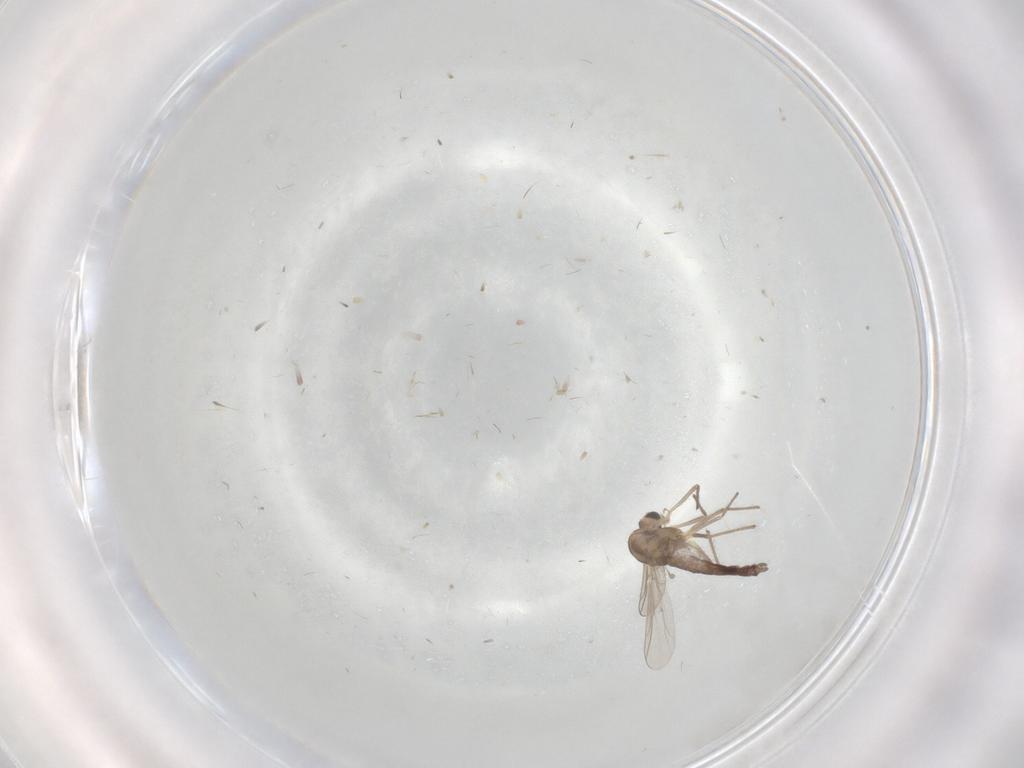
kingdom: Animalia
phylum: Arthropoda
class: Insecta
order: Diptera
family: Chironomidae
